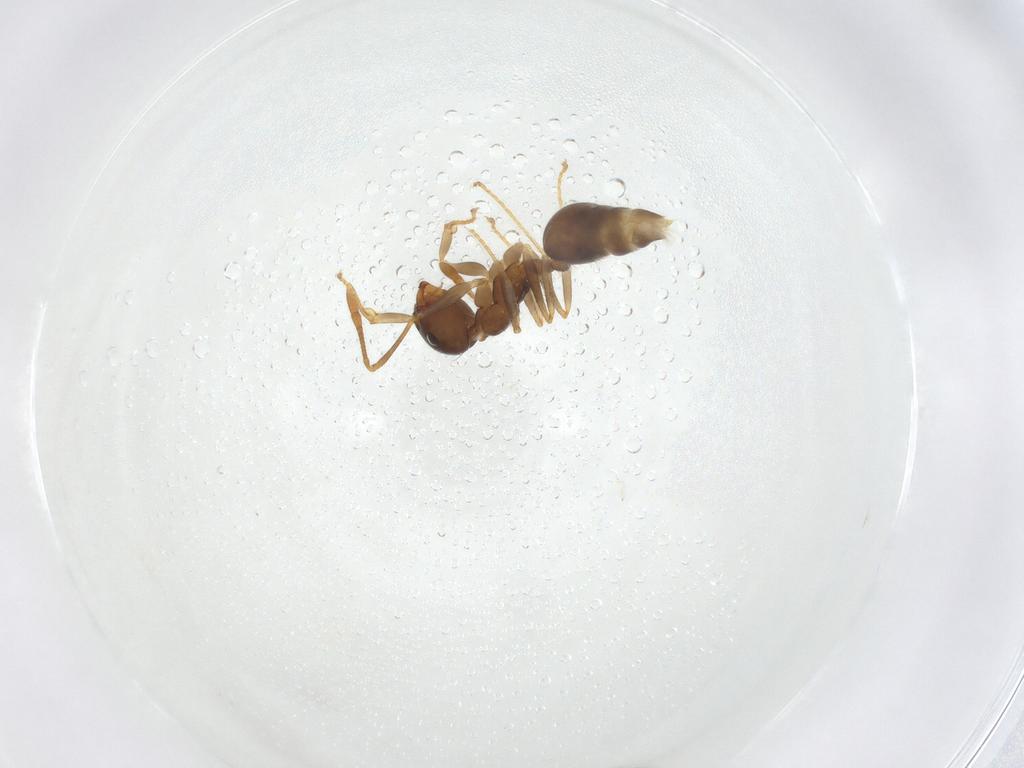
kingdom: Animalia
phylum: Arthropoda
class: Insecta
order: Hymenoptera
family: Formicidae
